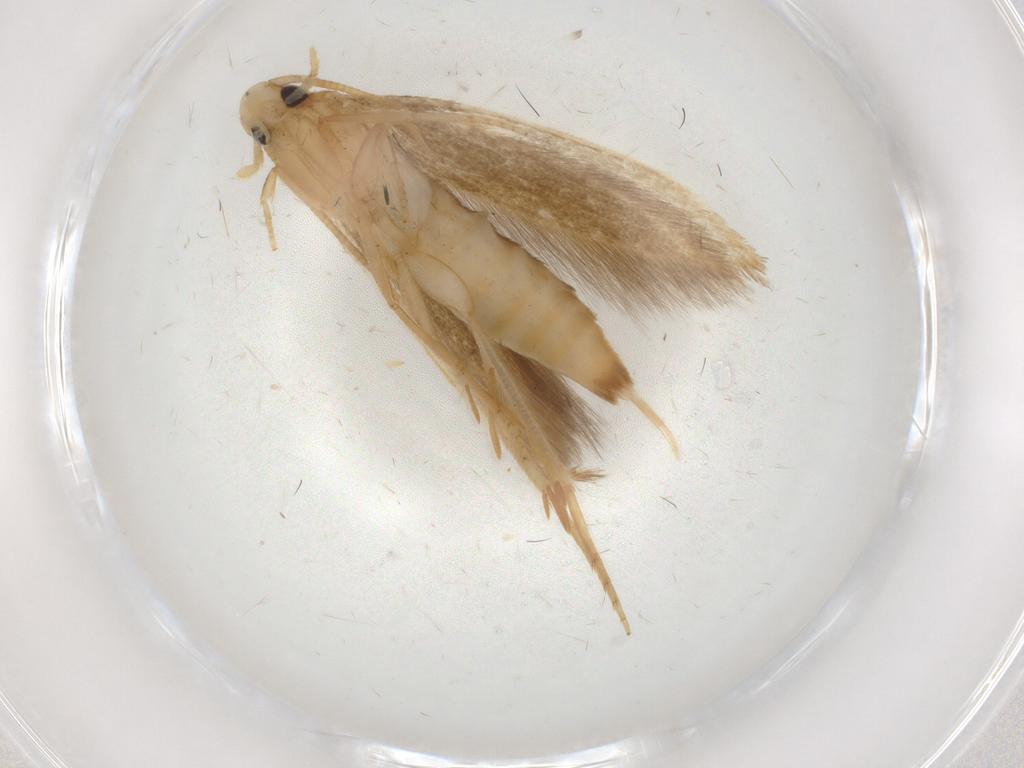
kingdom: Animalia
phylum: Arthropoda
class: Insecta
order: Lepidoptera
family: Tineidae
